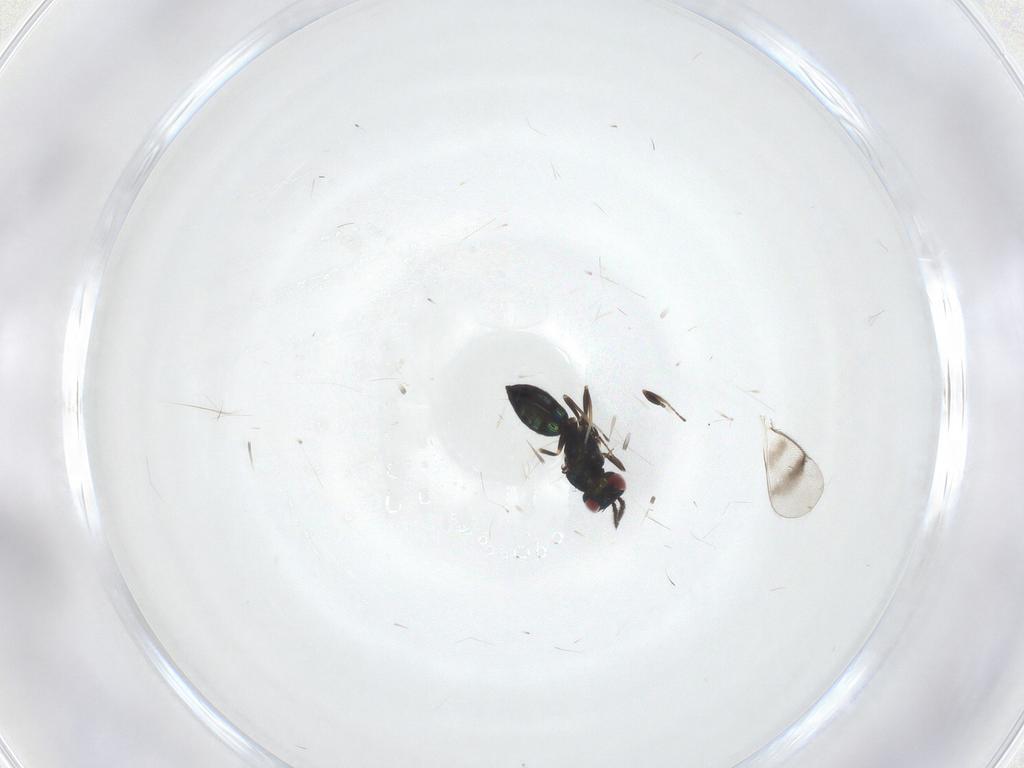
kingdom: Animalia
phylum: Arthropoda
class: Insecta
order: Hymenoptera
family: Eulophidae
